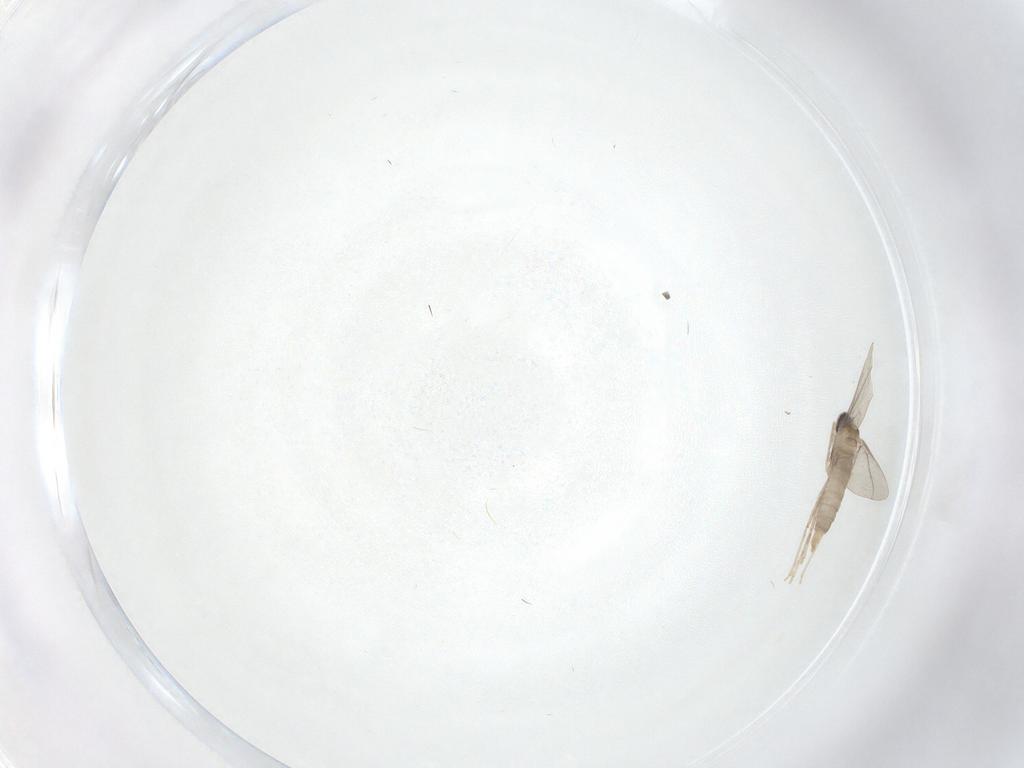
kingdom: Animalia
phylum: Arthropoda
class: Insecta
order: Diptera
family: Cecidomyiidae
